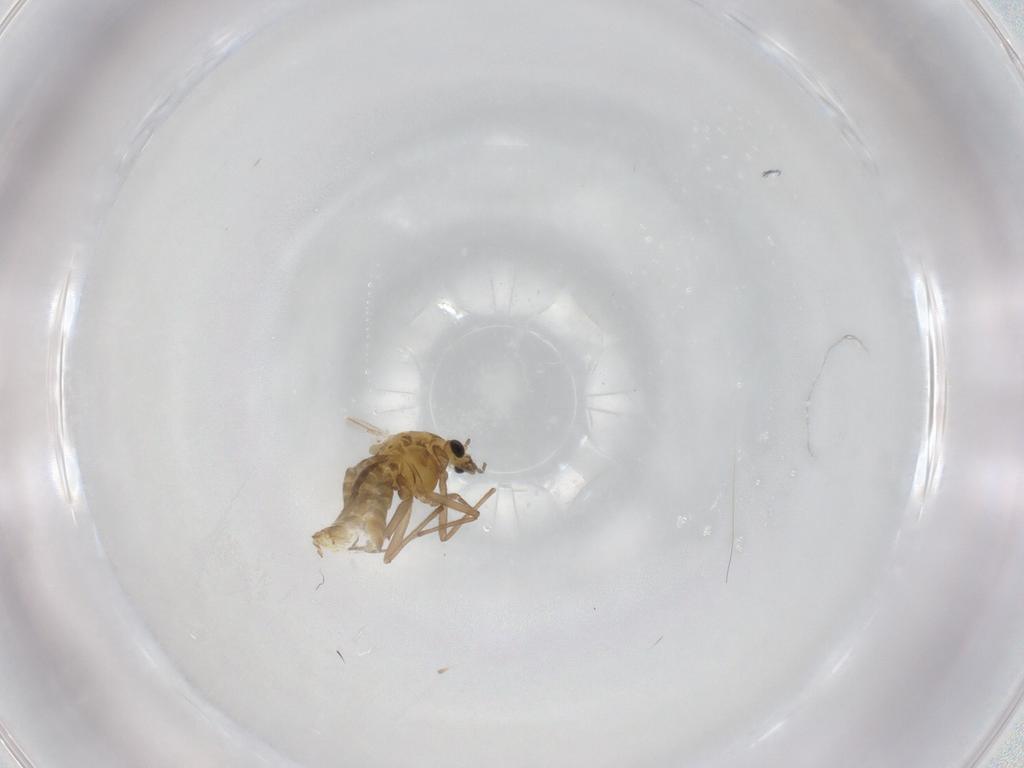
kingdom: Animalia
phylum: Arthropoda
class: Insecta
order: Diptera
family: Chironomidae
